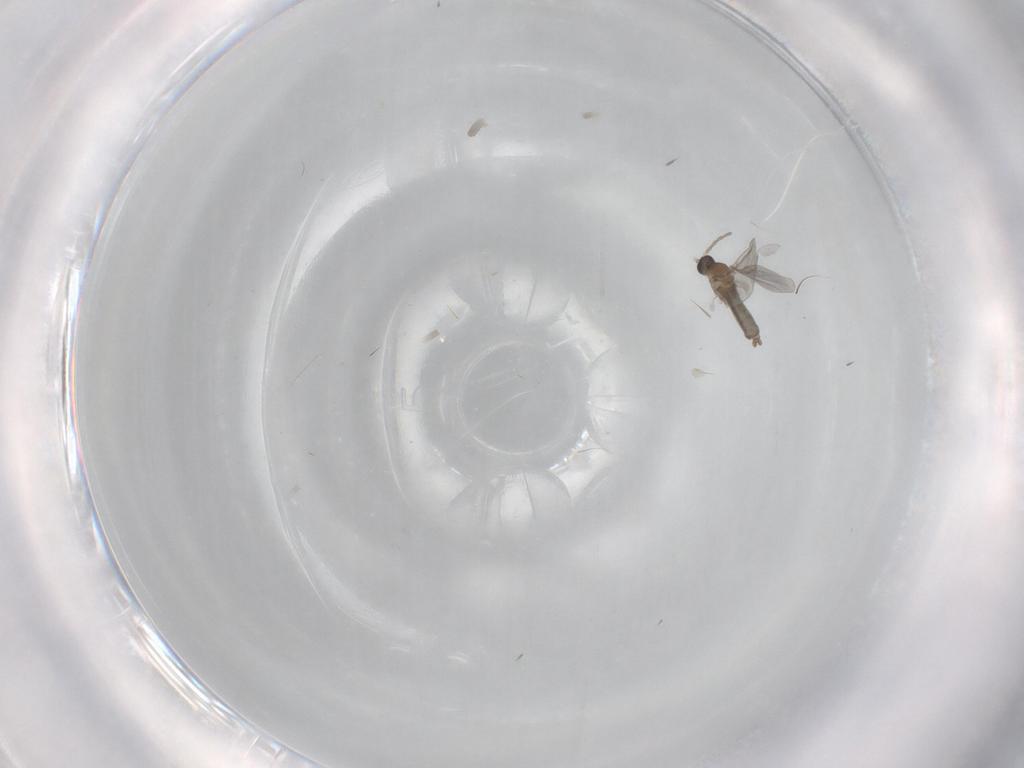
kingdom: Animalia
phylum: Arthropoda
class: Insecta
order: Diptera
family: Cecidomyiidae
